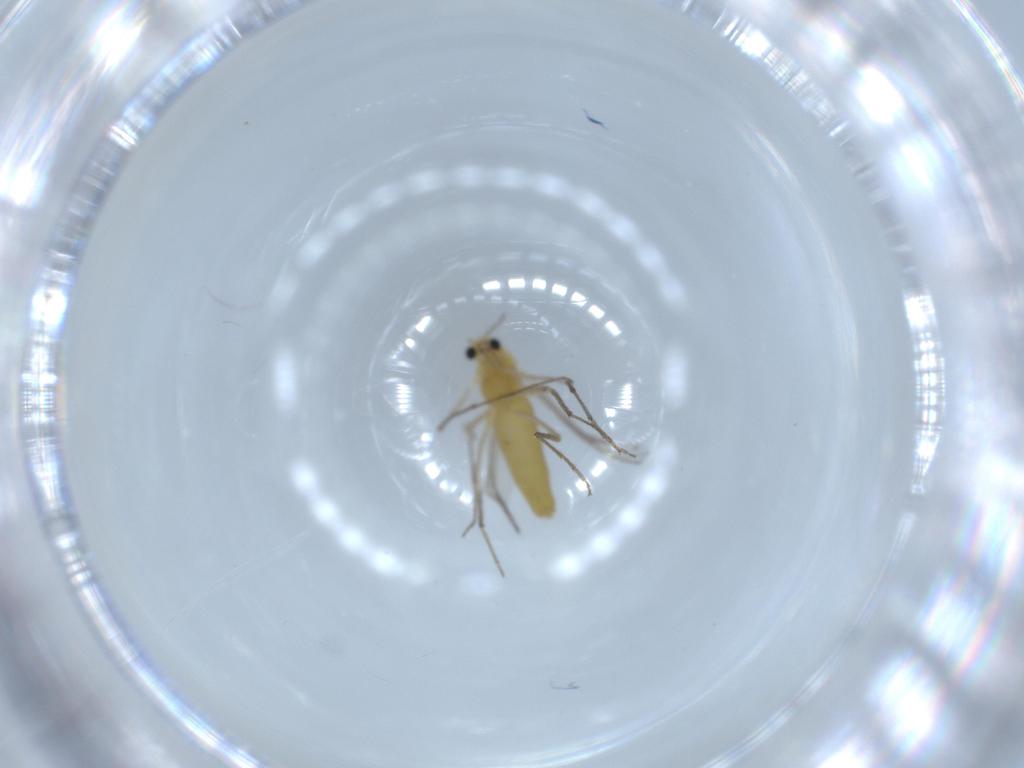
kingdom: Animalia
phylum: Arthropoda
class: Insecta
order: Diptera
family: Chironomidae
